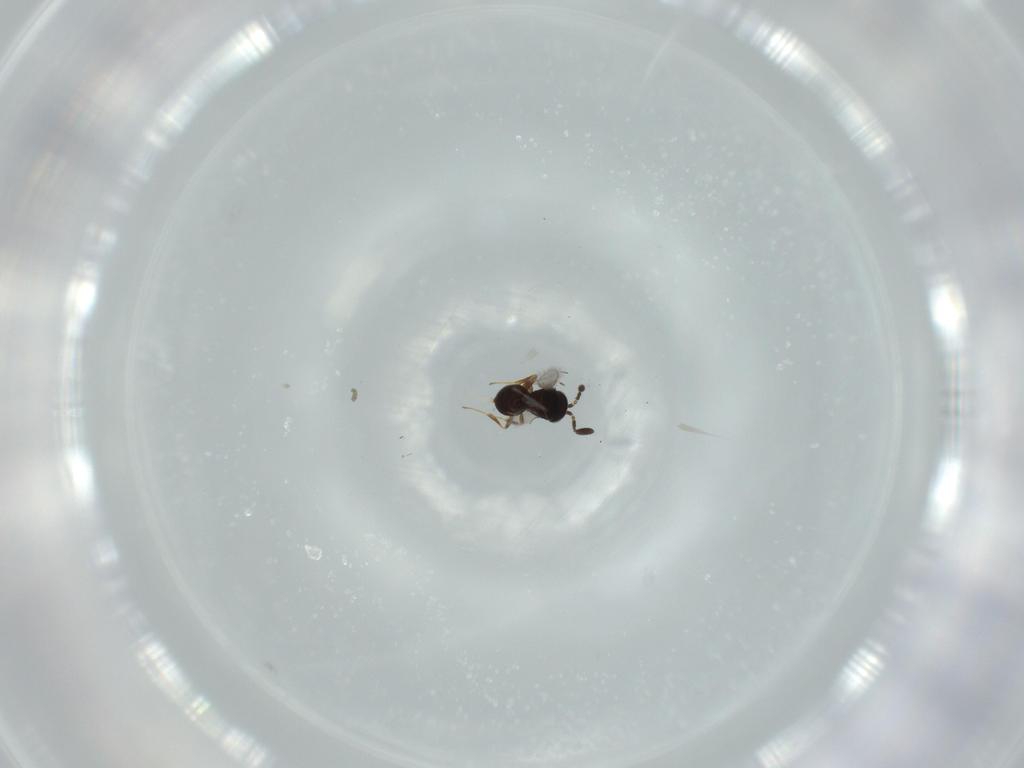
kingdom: Animalia
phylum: Arthropoda
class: Insecta
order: Hymenoptera
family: Scelionidae
